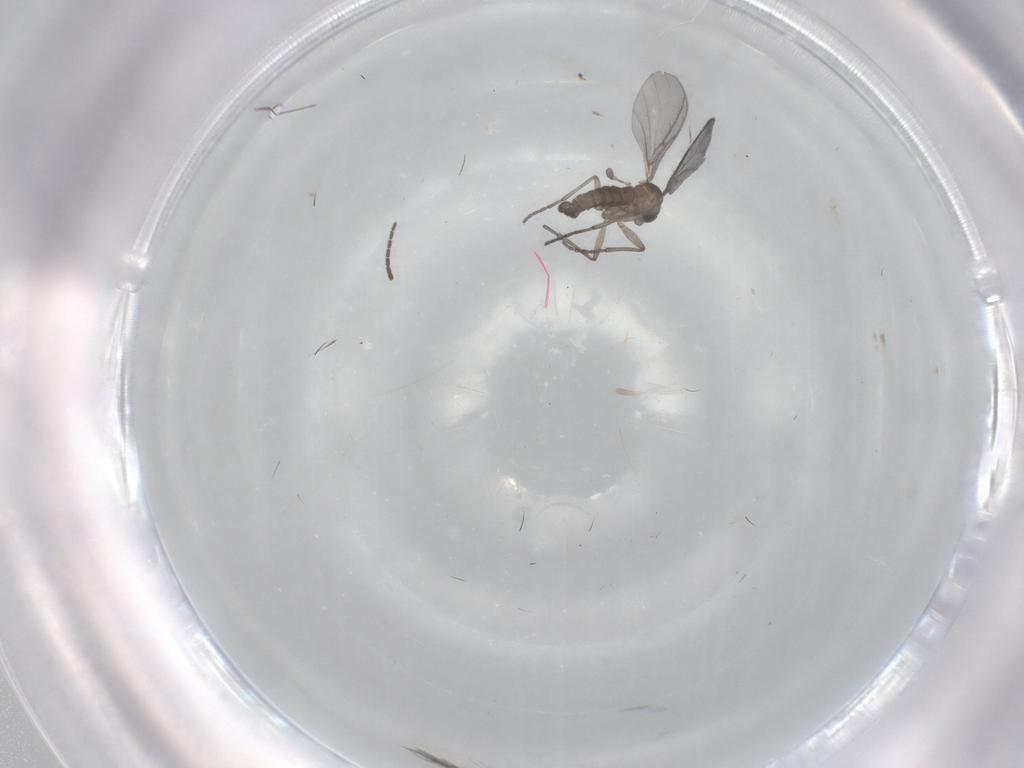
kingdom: Animalia
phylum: Arthropoda
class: Insecta
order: Diptera
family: Sciaridae
